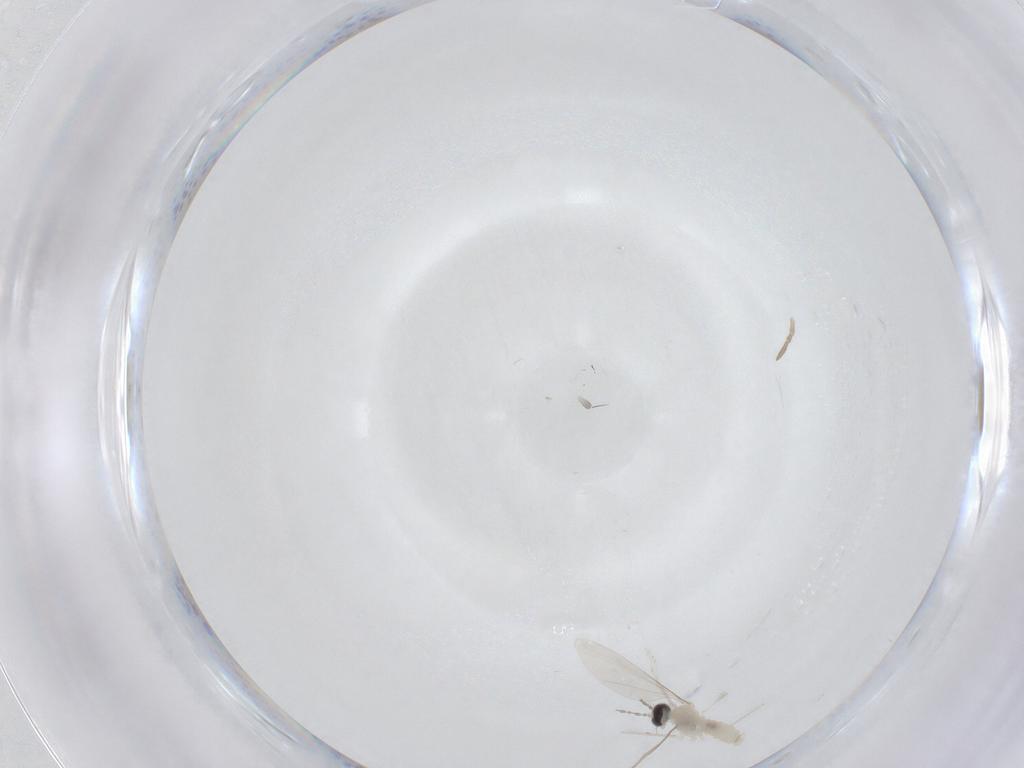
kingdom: Animalia
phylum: Arthropoda
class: Insecta
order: Diptera
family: Cecidomyiidae
